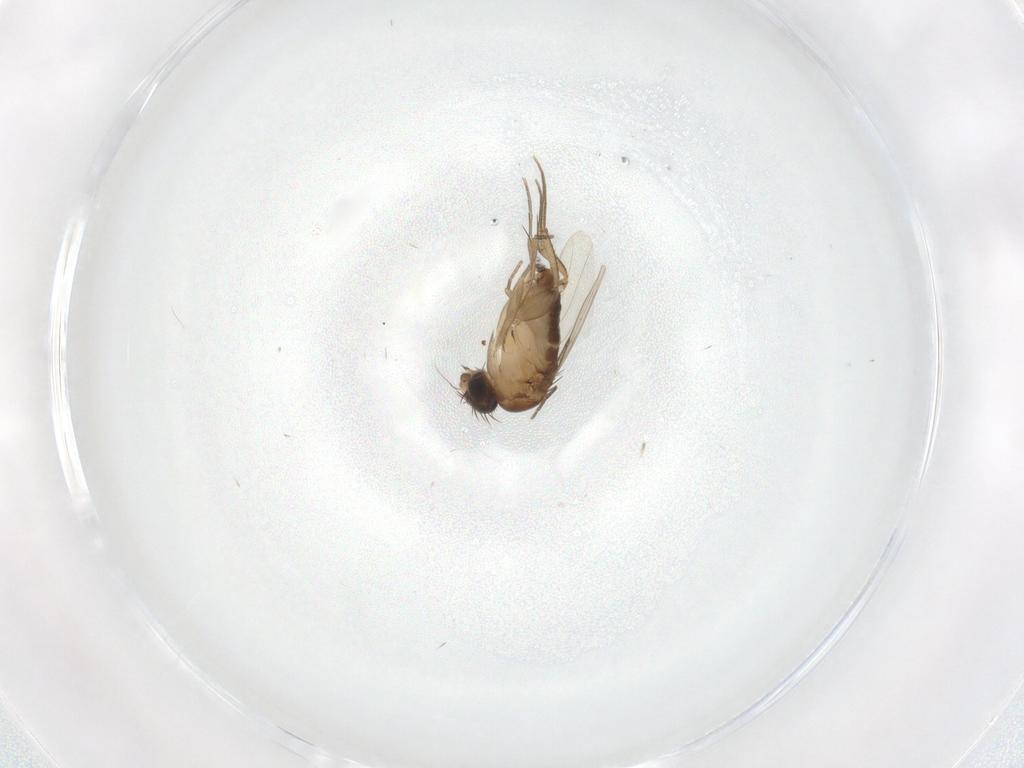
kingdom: Animalia
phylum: Arthropoda
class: Insecta
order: Diptera
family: Phoridae
